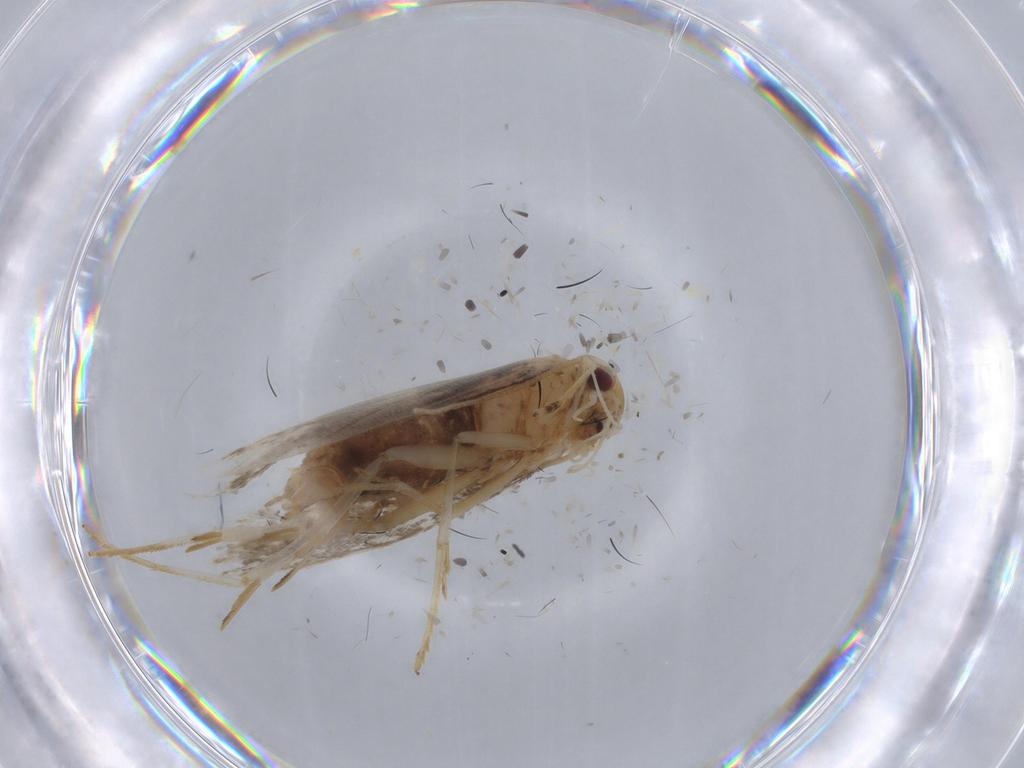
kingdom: Animalia
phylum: Arthropoda
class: Insecta
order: Lepidoptera
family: Cosmopterigidae
